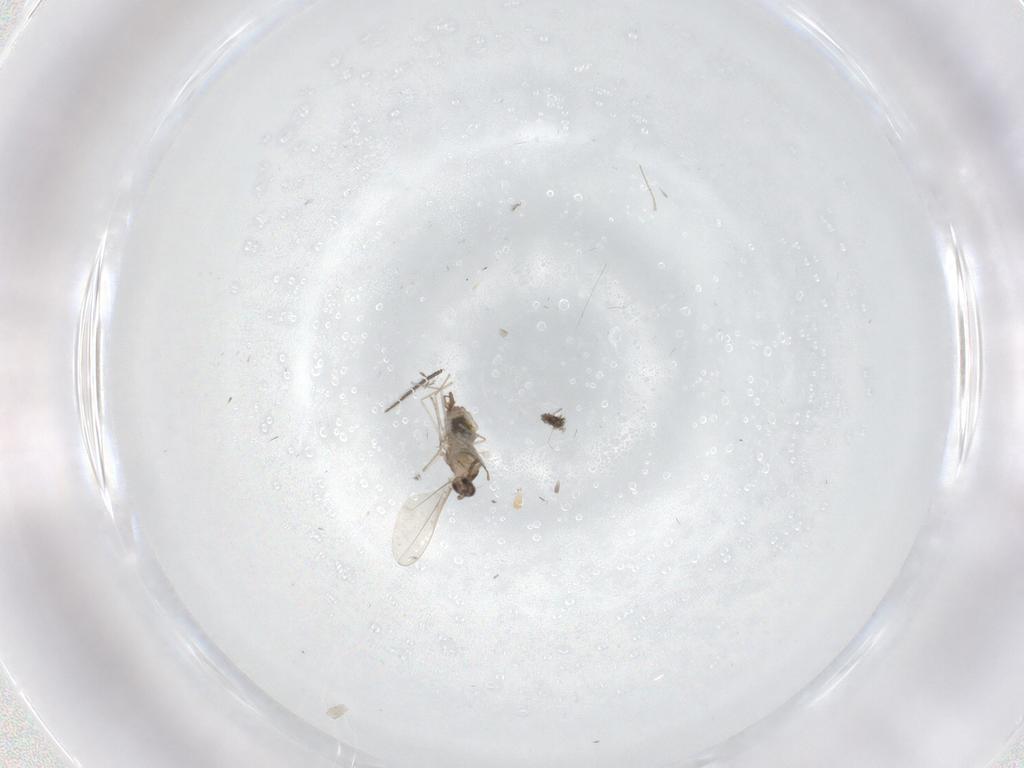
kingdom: Animalia
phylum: Arthropoda
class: Insecta
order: Diptera
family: Cecidomyiidae
